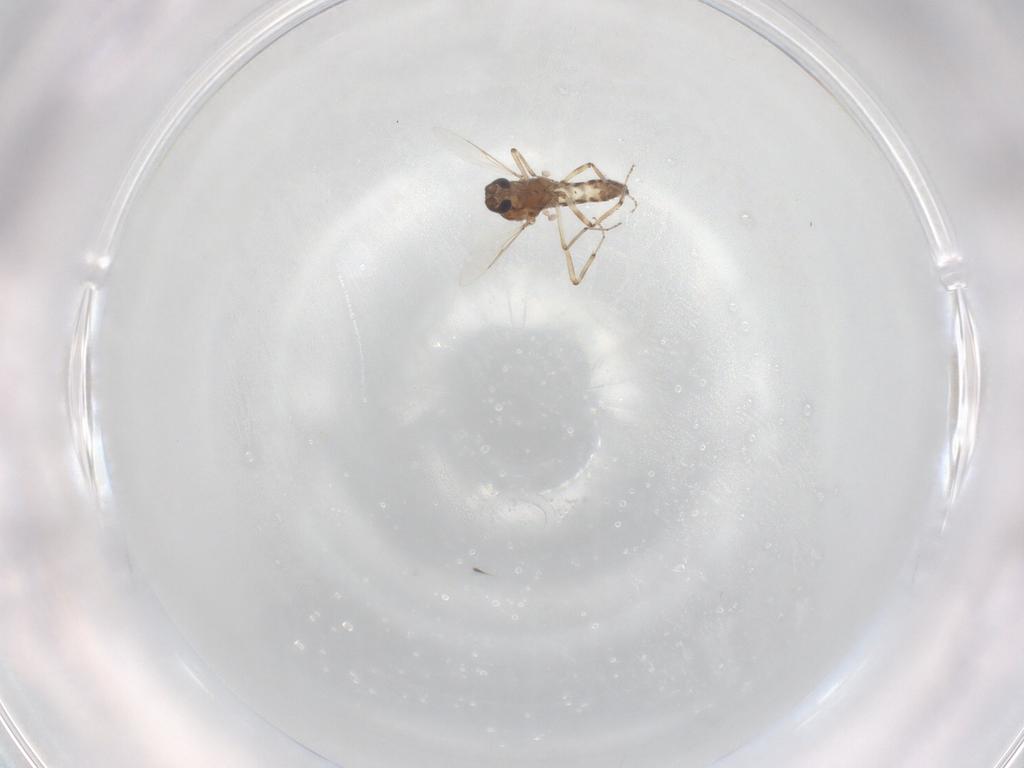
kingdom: Animalia
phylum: Arthropoda
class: Insecta
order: Diptera
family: Ceratopogonidae
